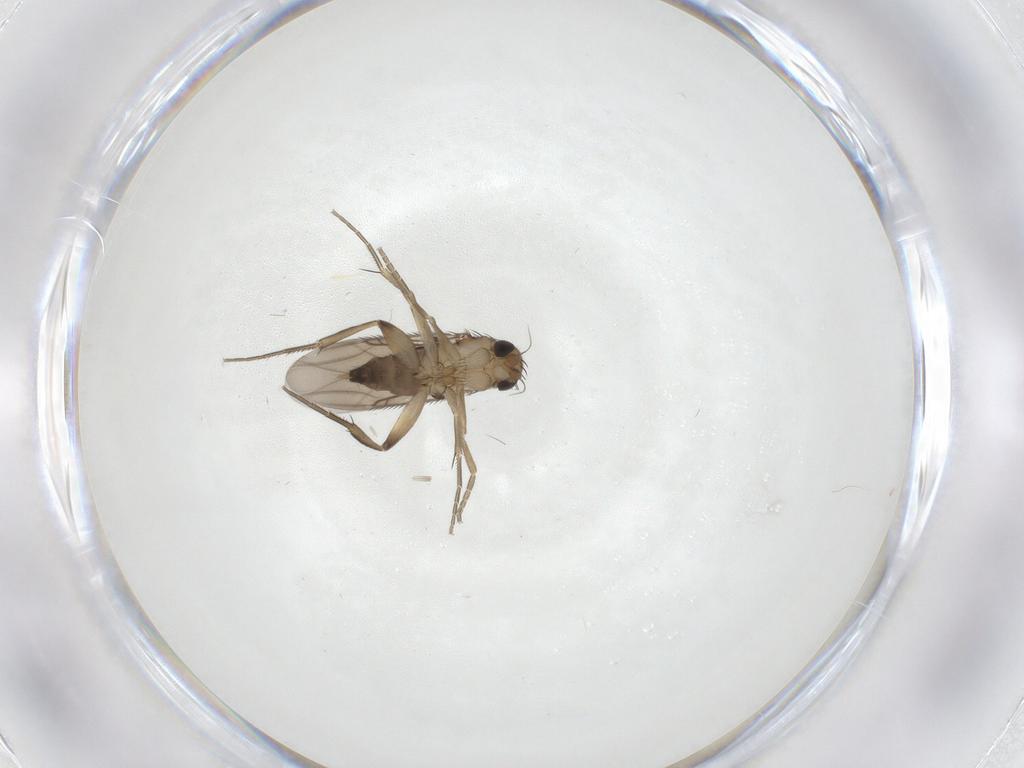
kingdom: Animalia
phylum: Arthropoda
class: Insecta
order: Diptera
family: Phoridae
